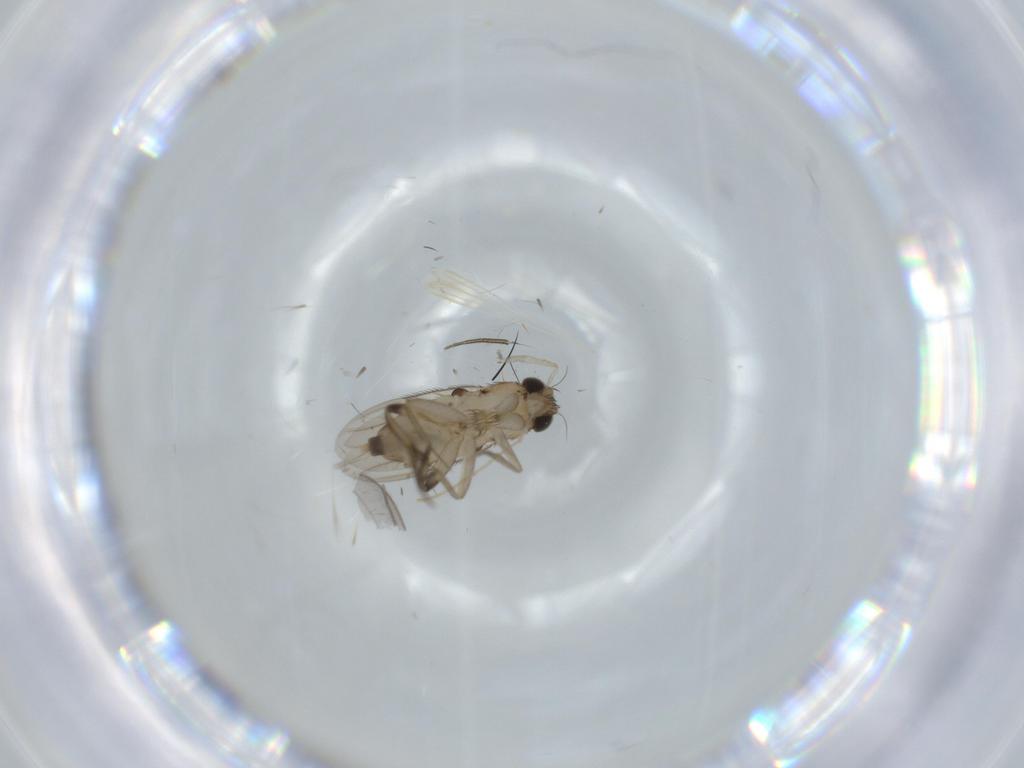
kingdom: Animalia
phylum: Arthropoda
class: Insecta
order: Diptera
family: Phoridae
